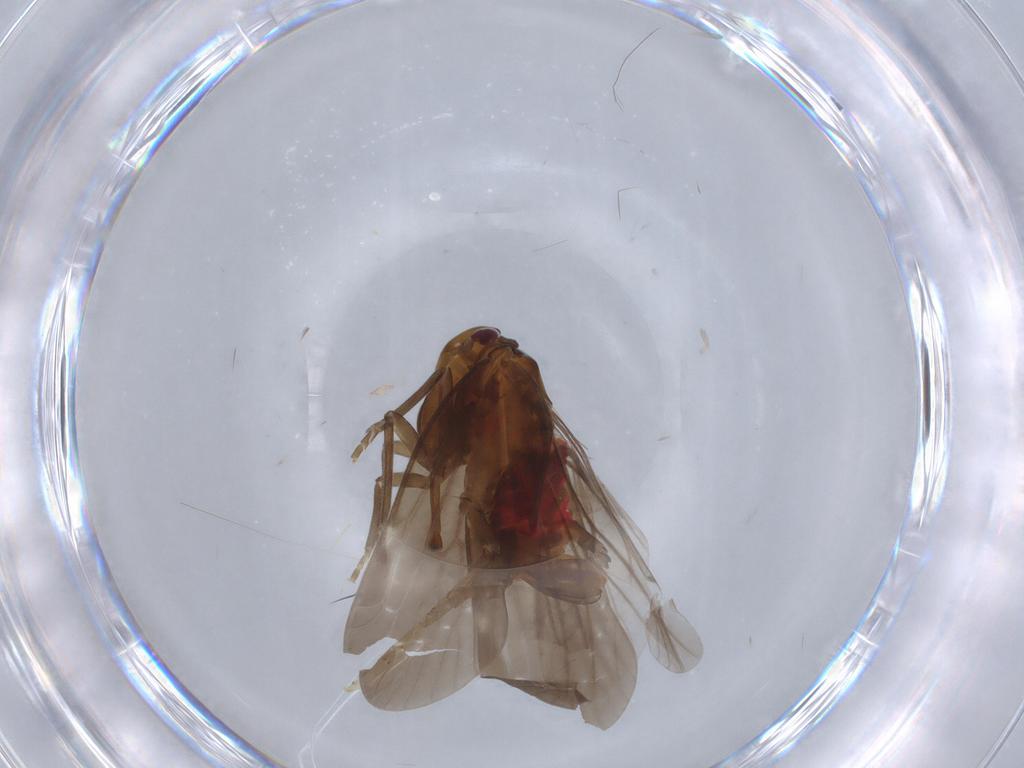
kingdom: Animalia
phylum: Arthropoda
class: Insecta
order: Hemiptera
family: Derbidae
